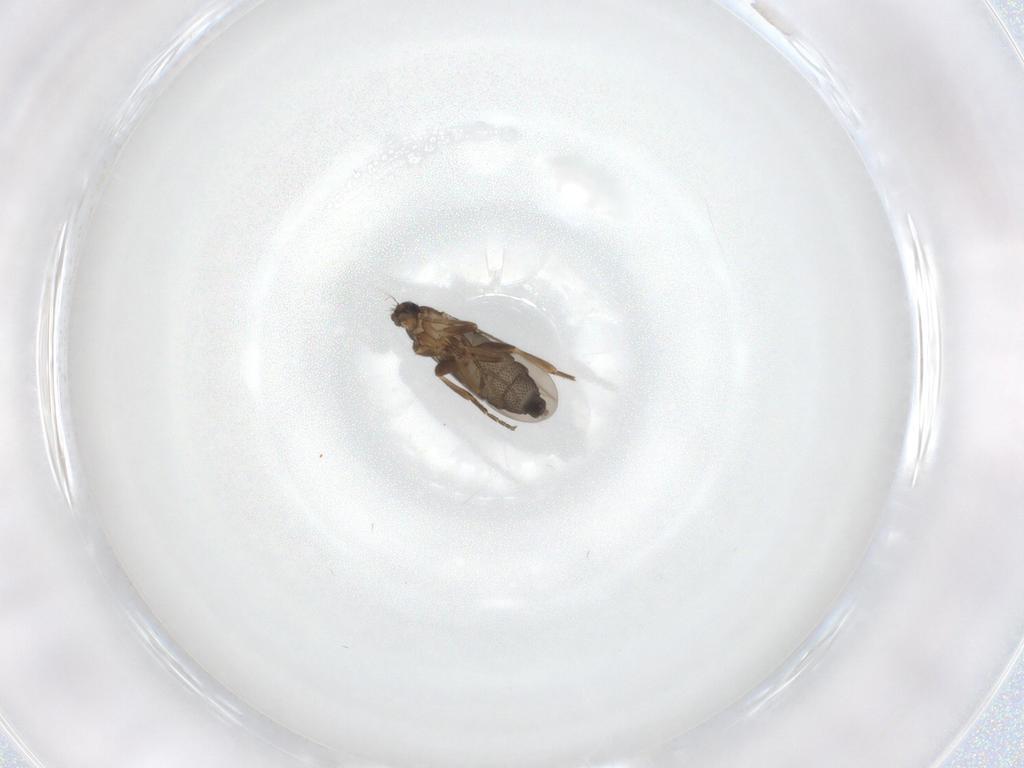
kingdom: Animalia
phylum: Arthropoda
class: Insecta
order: Diptera
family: Phoridae
